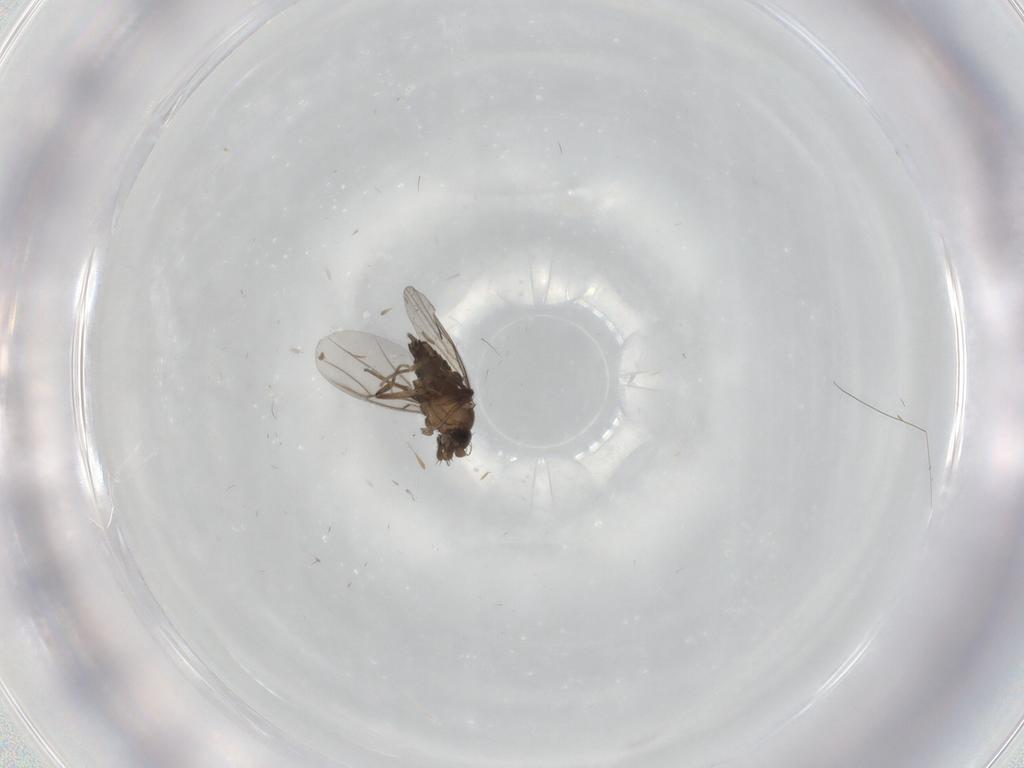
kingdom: Animalia
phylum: Arthropoda
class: Insecta
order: Diptera
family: Phoridae
